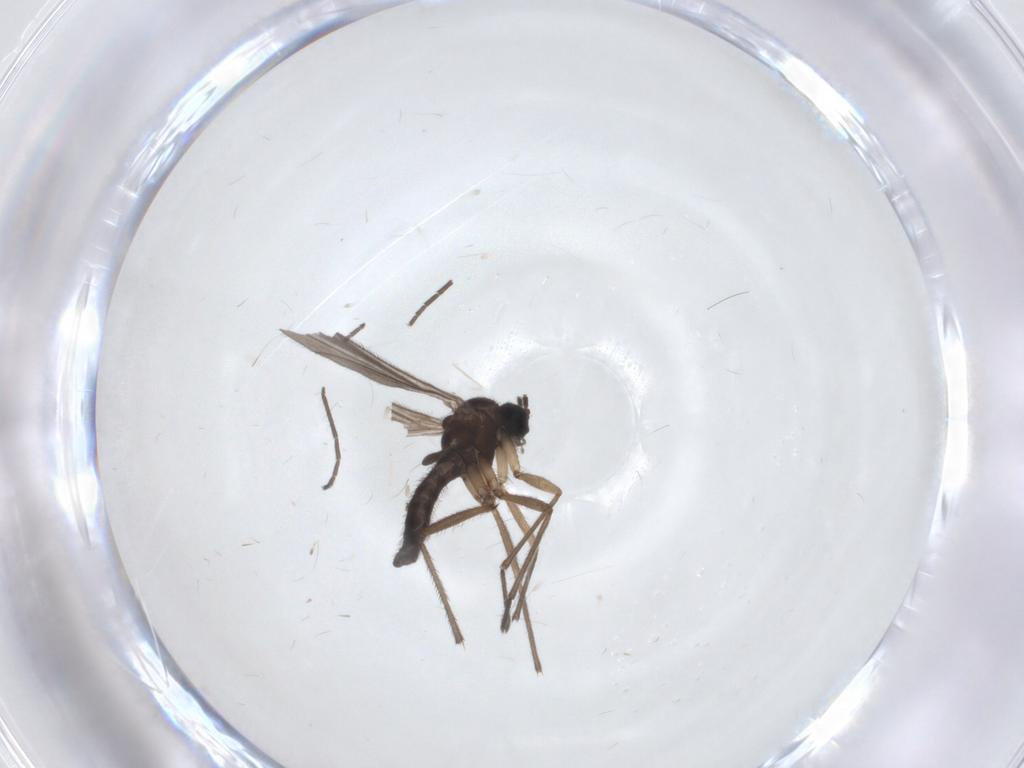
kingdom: Animalia
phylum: Arthropoda
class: Insecta
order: Diptera
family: Sciaridae
